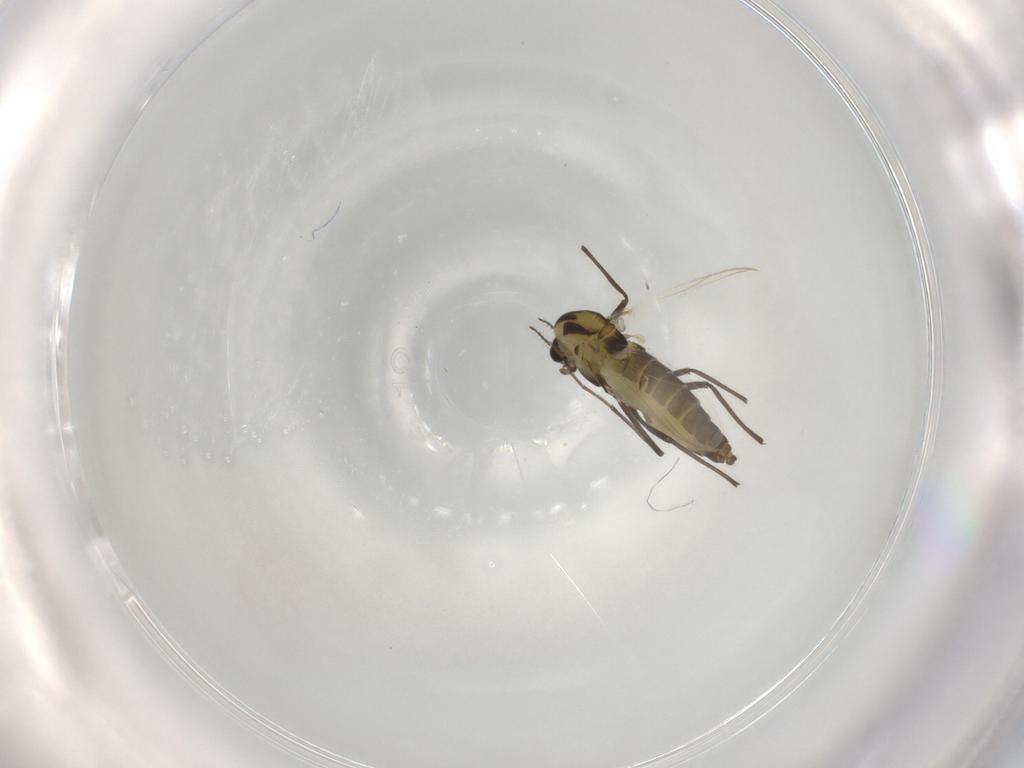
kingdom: Animalia
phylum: Arthropoda
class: Insecta
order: Diptera
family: Chironomidae
